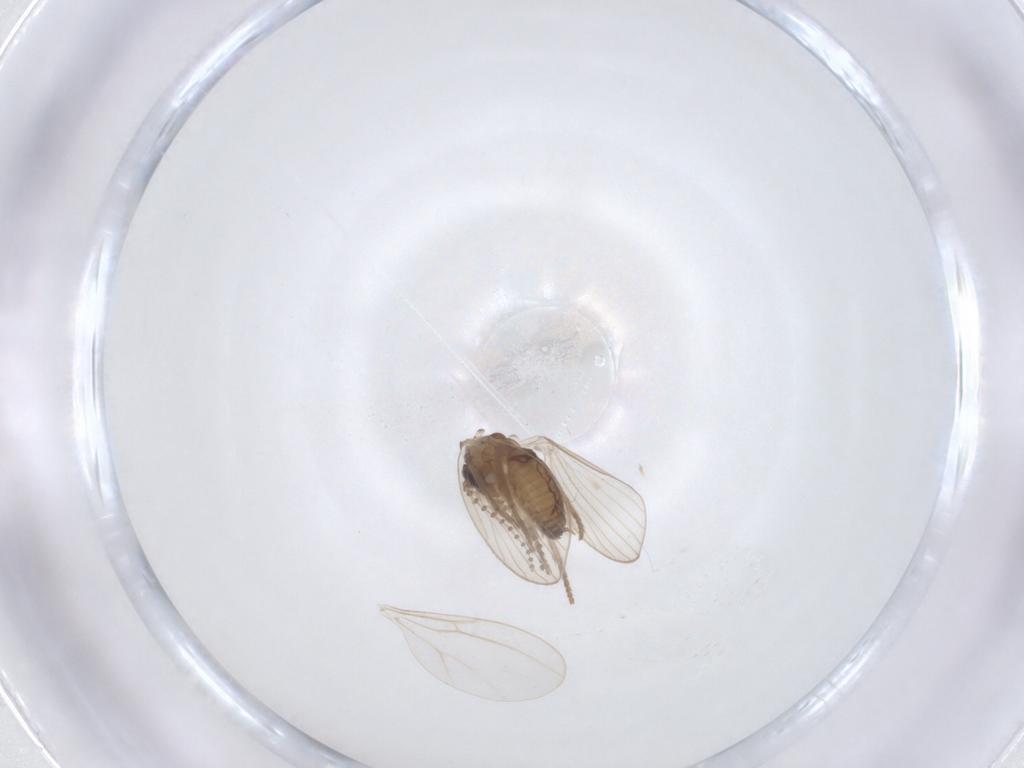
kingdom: Animalia
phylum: Arthropoda
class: Insecta
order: Diptera
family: Psychodidae
